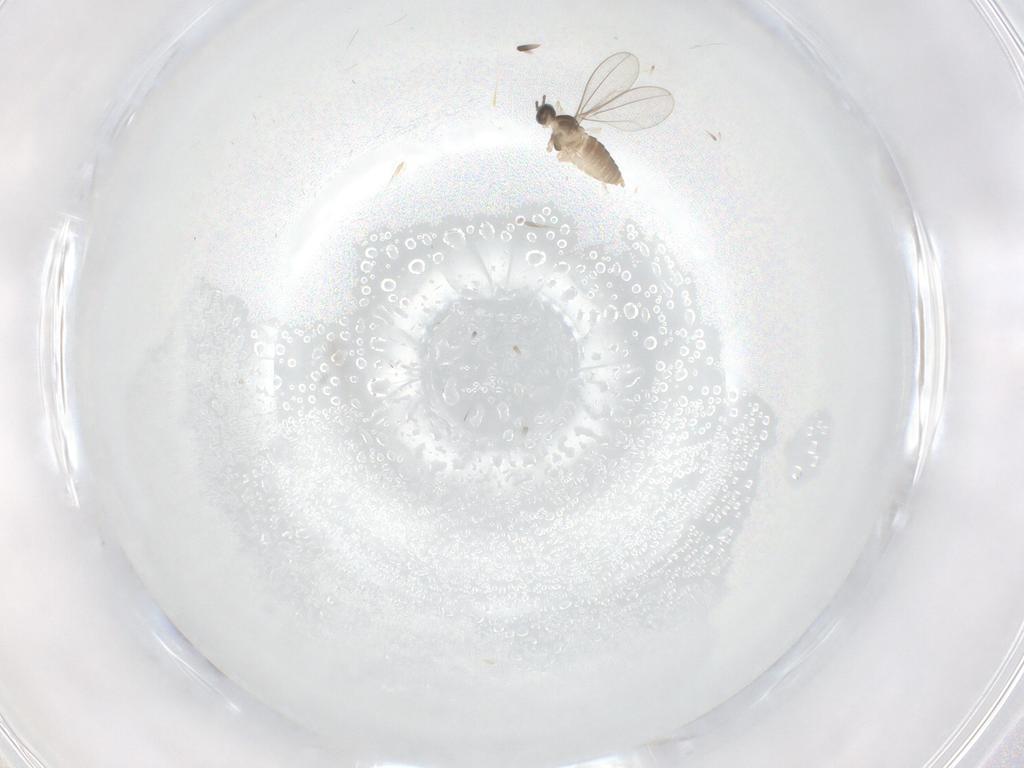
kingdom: Animalia
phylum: Arthropoda
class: Insecta
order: Diptera
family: Cecidomyiidae
